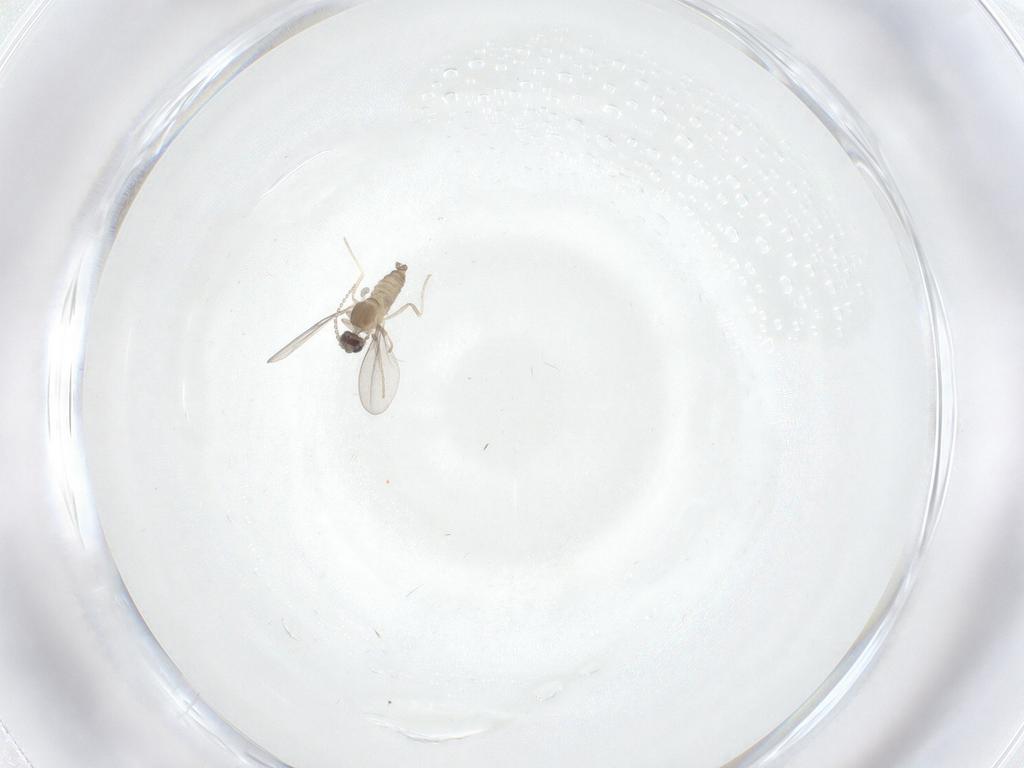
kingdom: Animalia
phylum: Arthropoda
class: Insecta
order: Diptera
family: Cecidomyiidae
